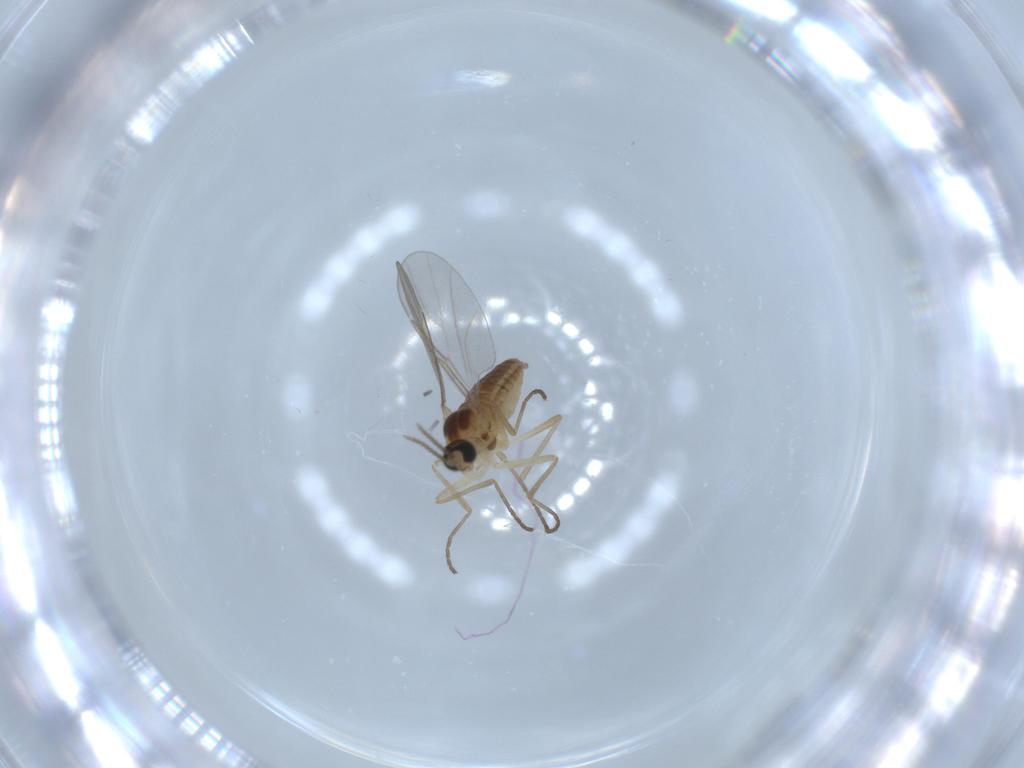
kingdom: Animalia
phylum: Arthropoda
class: Insecta
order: Diptera
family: Cecidomyiidae
